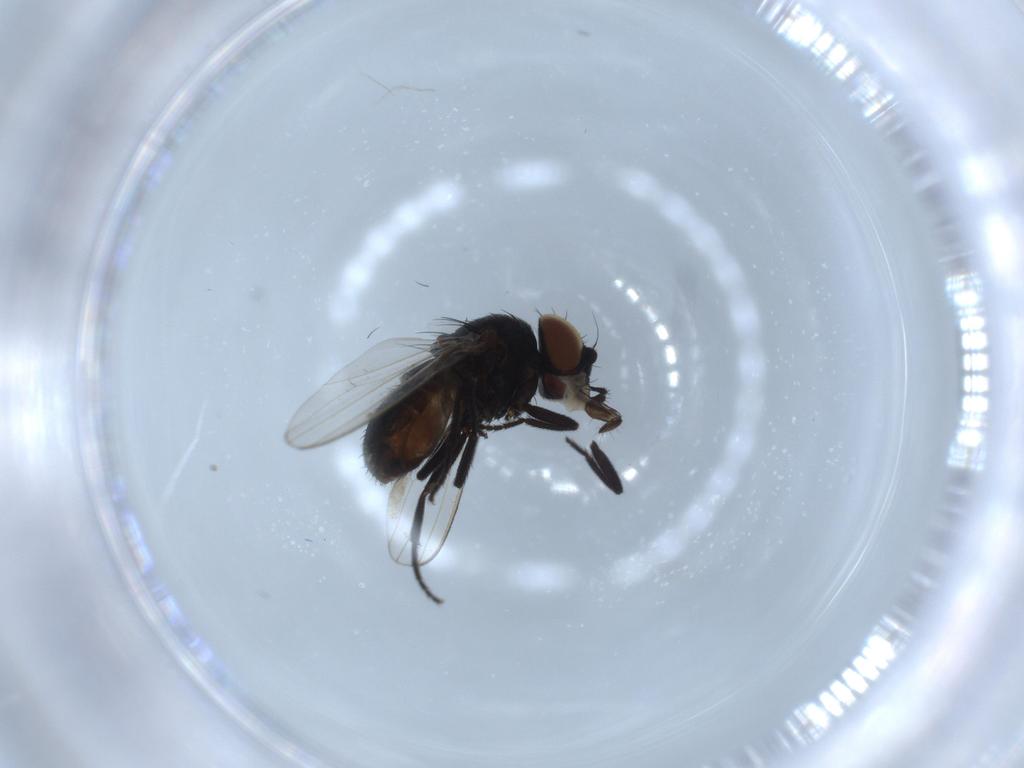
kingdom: Animalia
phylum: Arthropoda
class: Insecta
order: Diptera
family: Milichiidae
